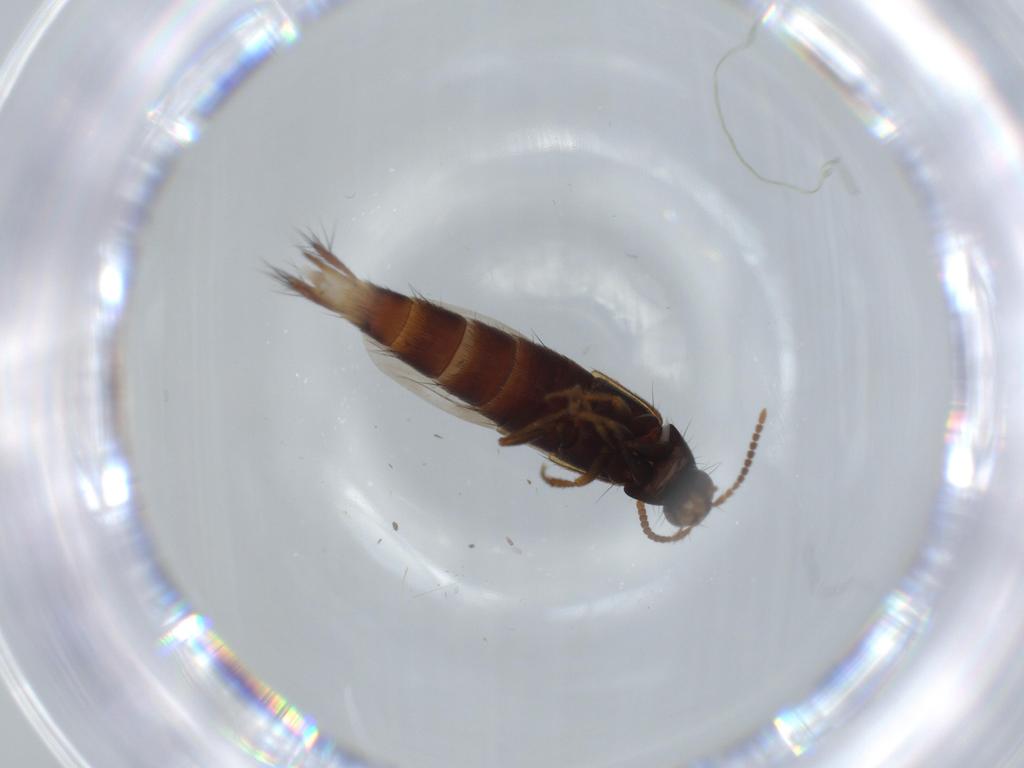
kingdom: Animalia
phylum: Arthropoda
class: Insecta
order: Coleoptera
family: Staphylinidae
